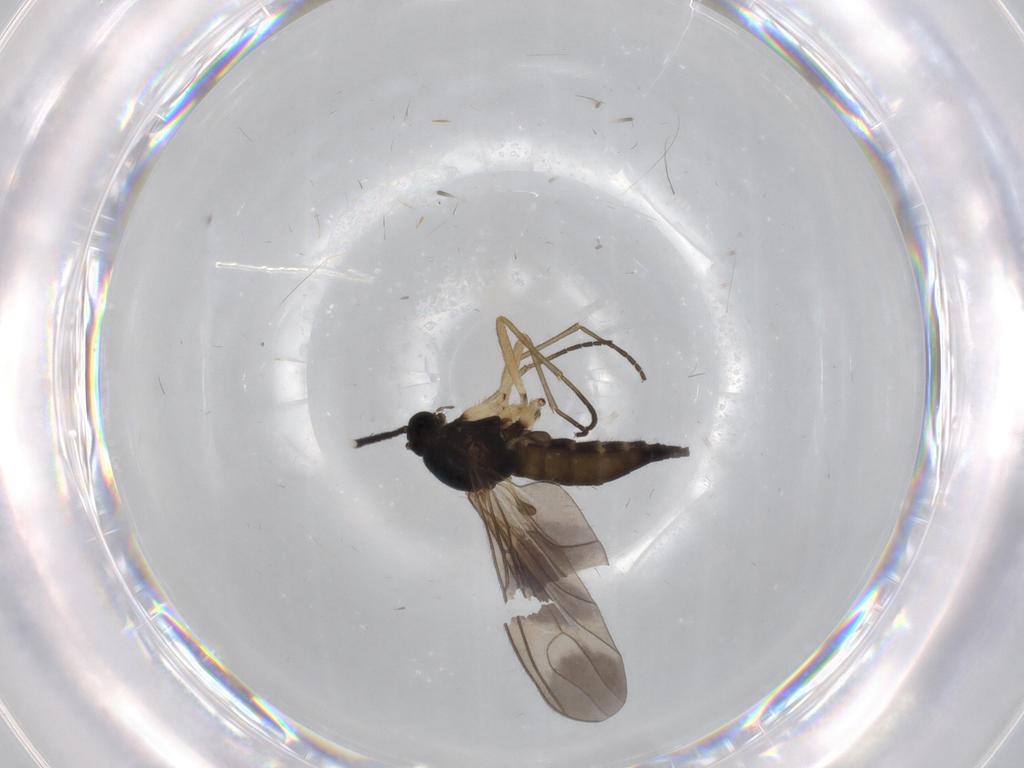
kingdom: Animalia
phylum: Arthropoda
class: Insecta
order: Diptera
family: Sciaridae
